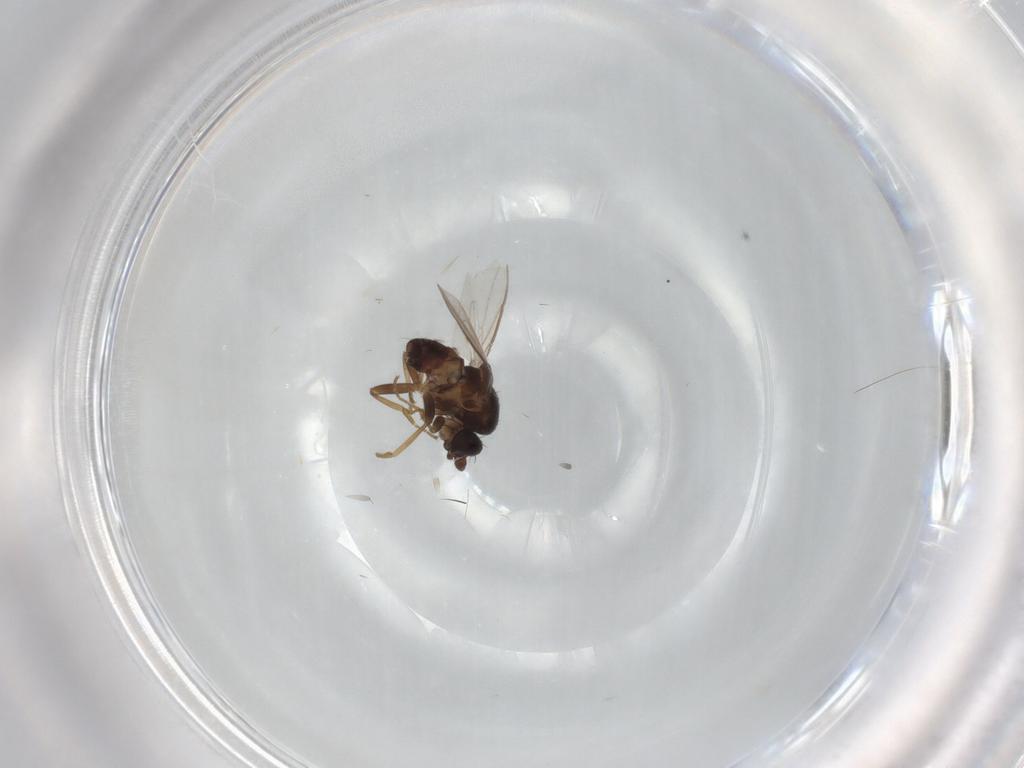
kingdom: Animalia
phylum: Arthropoda
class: Insecta
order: Diptera
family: Sphaeroceridae
